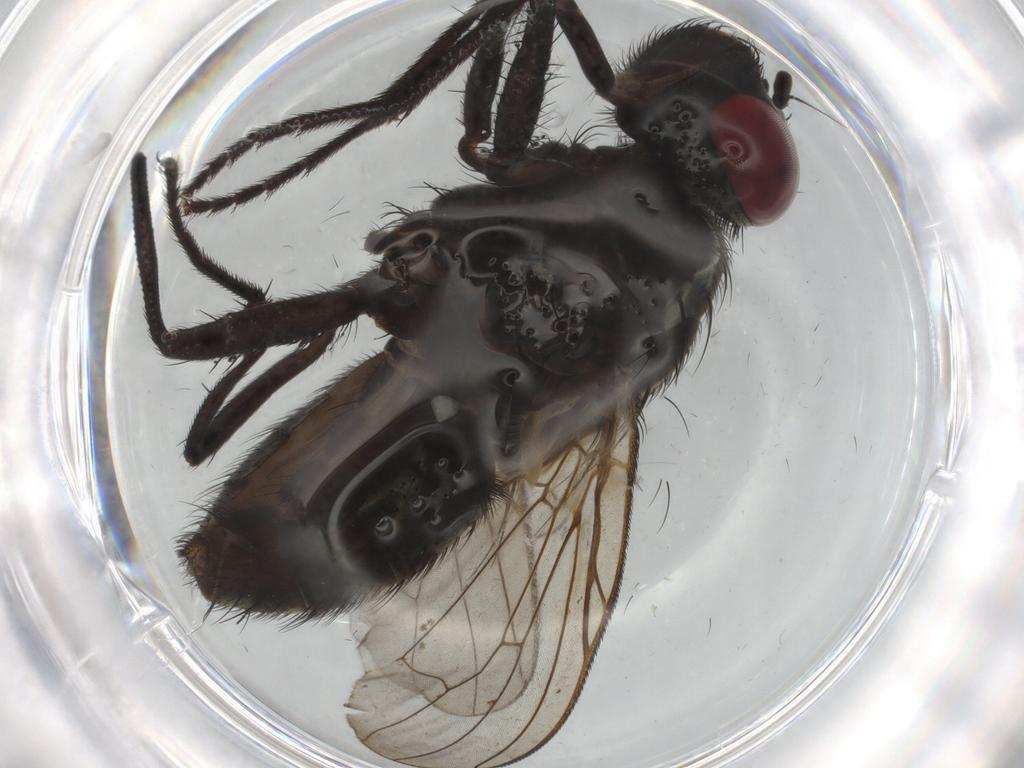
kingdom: Animalia
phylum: Arthropoda
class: Insecta
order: Diptera
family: Muscidae
